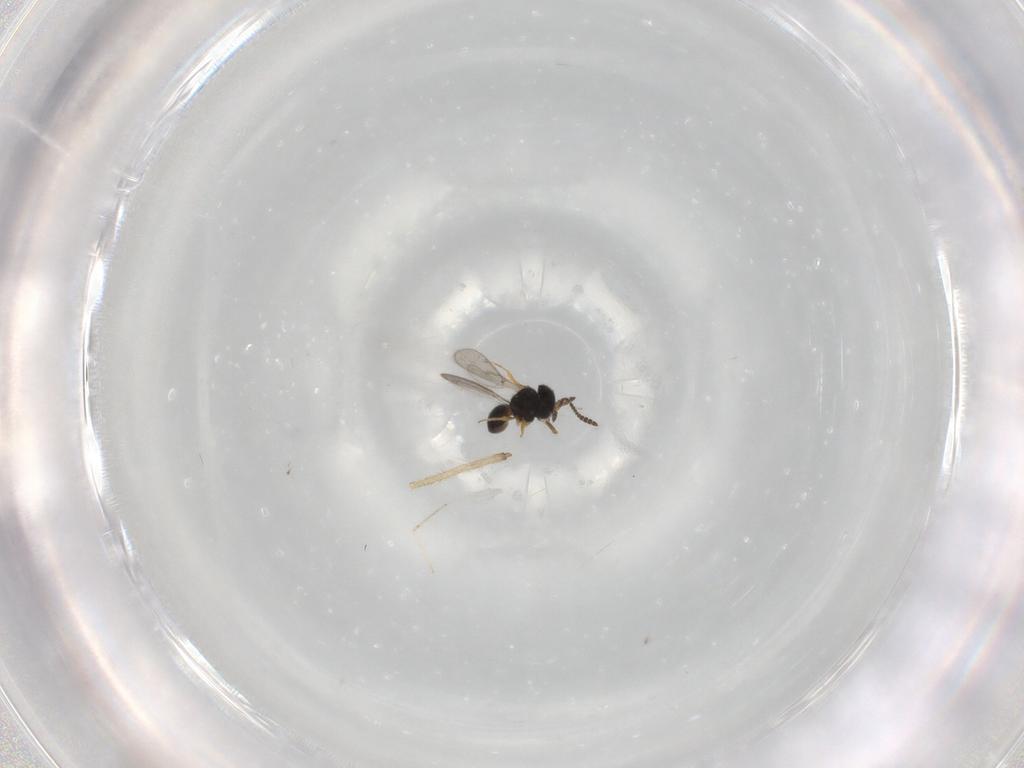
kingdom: Animalia
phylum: Arthropoda
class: Insecta
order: Hymenoptera
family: Scelionidae
